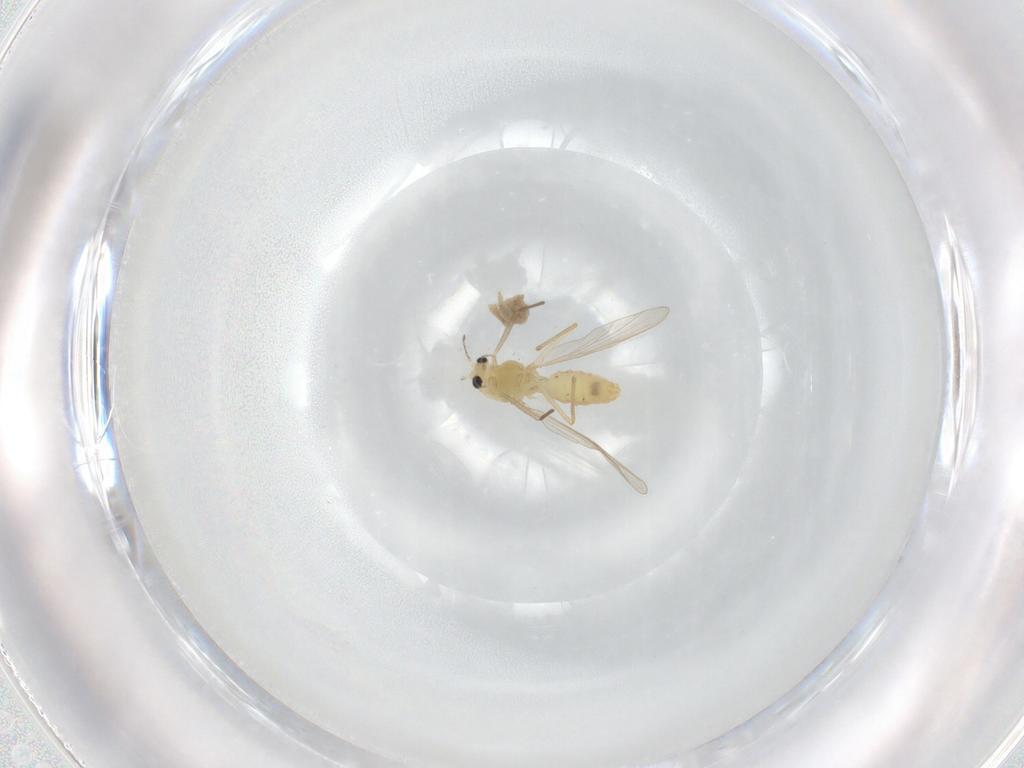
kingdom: Animalia
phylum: Arthropoda
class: Insecta
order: Diptera
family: Chironomidae
